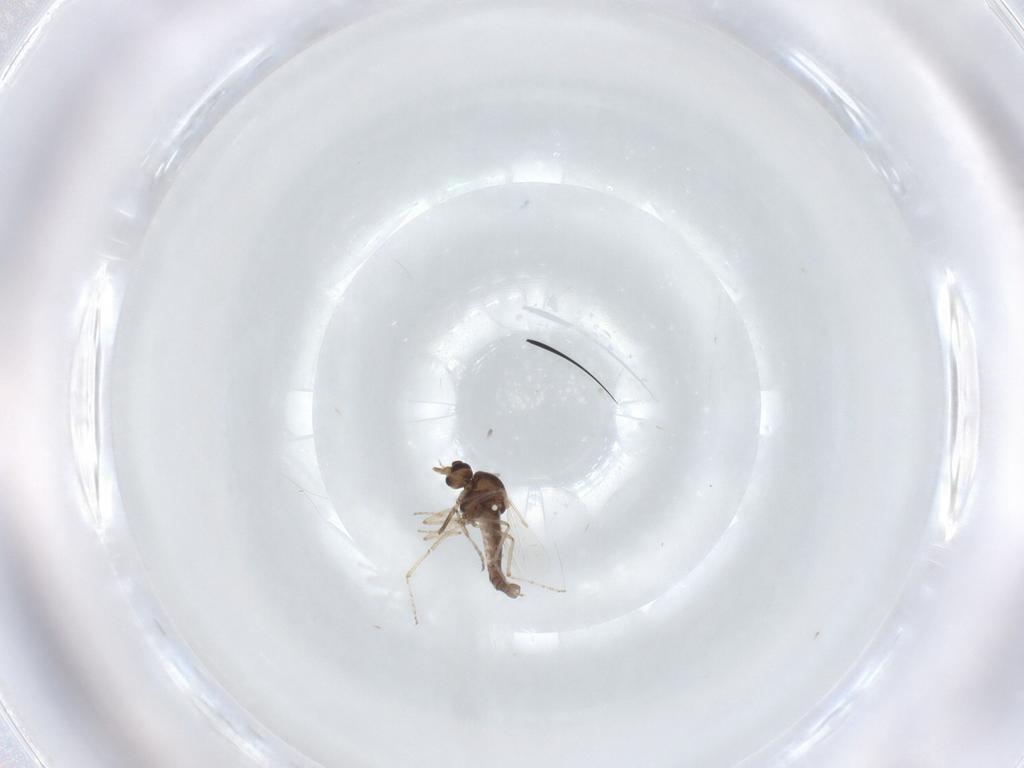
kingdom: Animalia
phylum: Arthropoda
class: Insecta
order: Diptera
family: Ceratopogonidae
